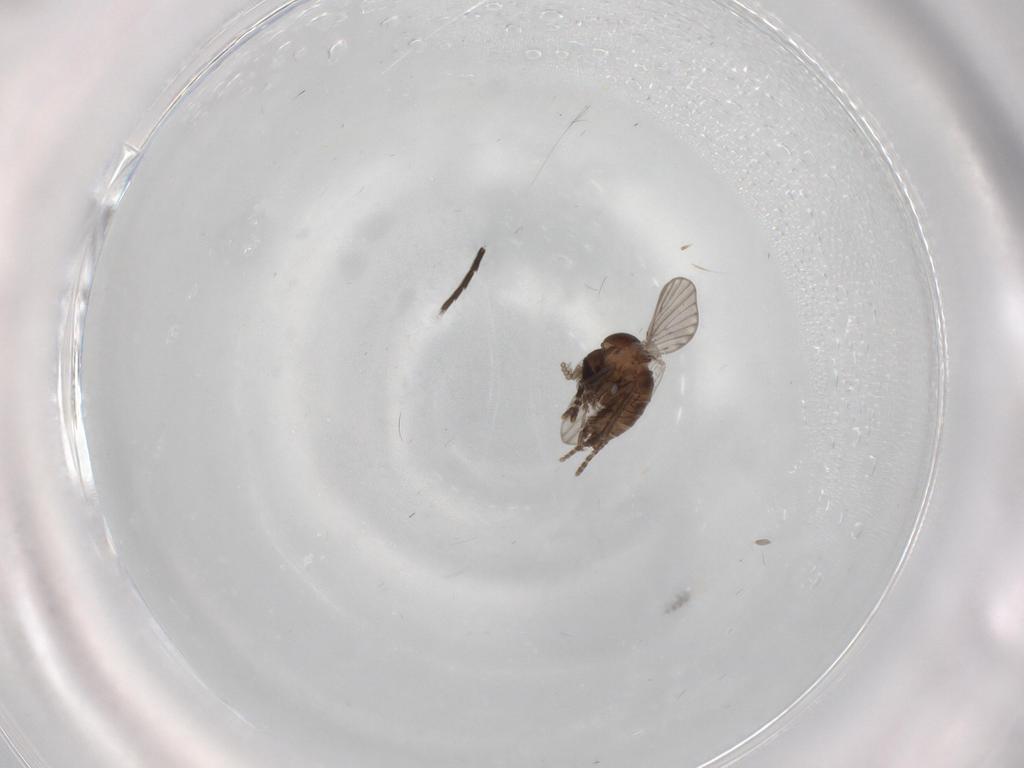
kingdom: Animalia
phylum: Arthropoda
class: Insecta
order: Diptera
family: Psychodidae
